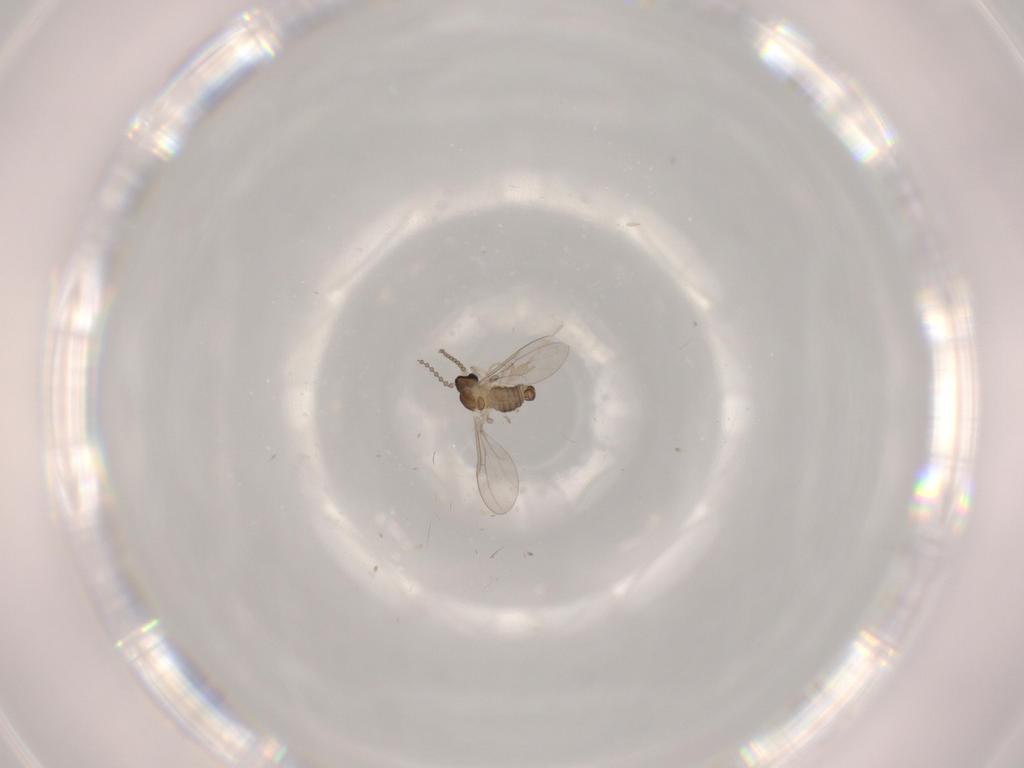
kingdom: Animalia
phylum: Arthropoda
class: Insecta
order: Diptera
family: Cecidomyiidae
